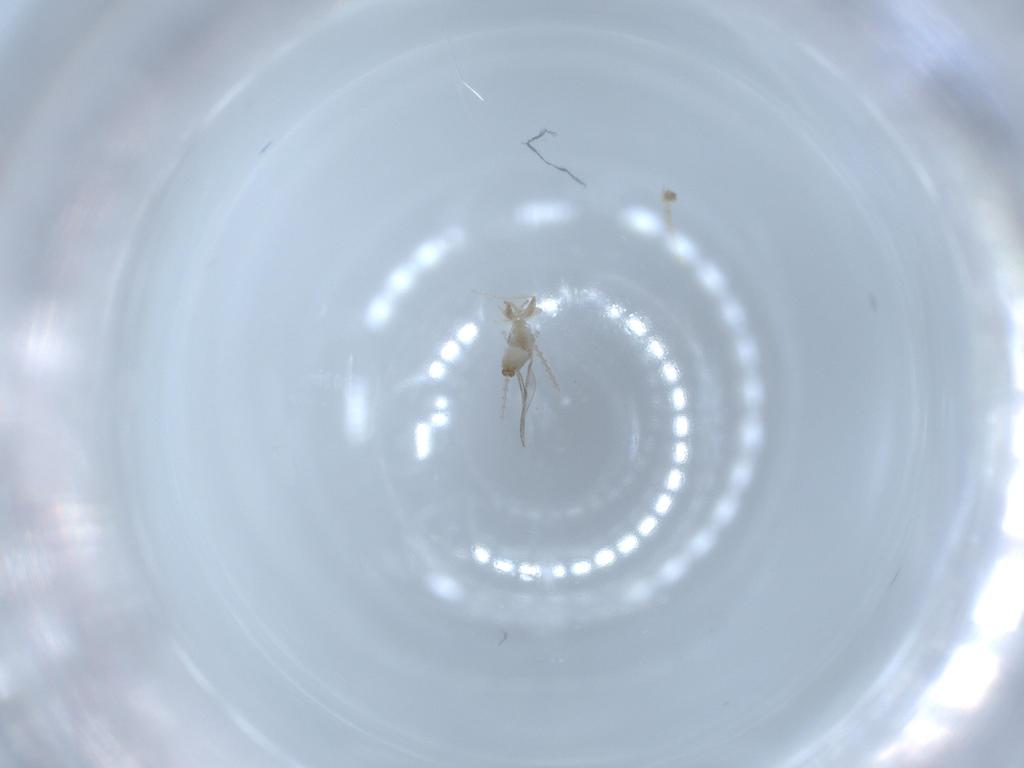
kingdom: Animalia
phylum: Arthropoda
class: Insecta
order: Diptera
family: Cecidomyiidae
